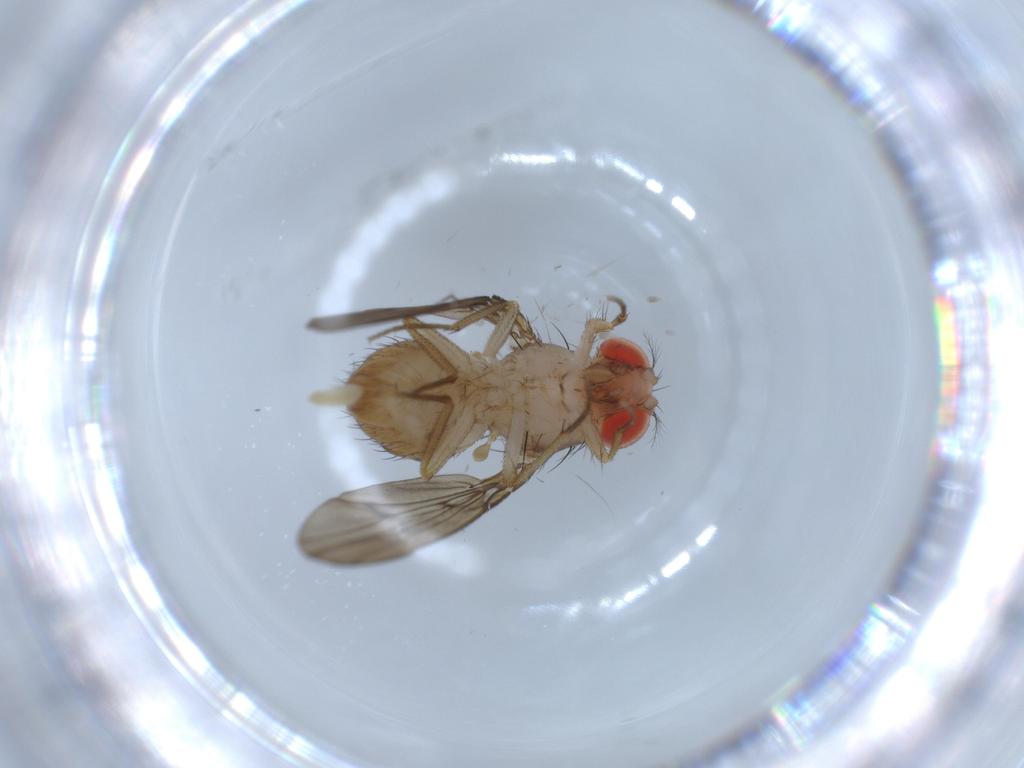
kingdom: Animalia
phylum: Arthropoda
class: Insecta
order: Diptera
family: Drosophilidae
